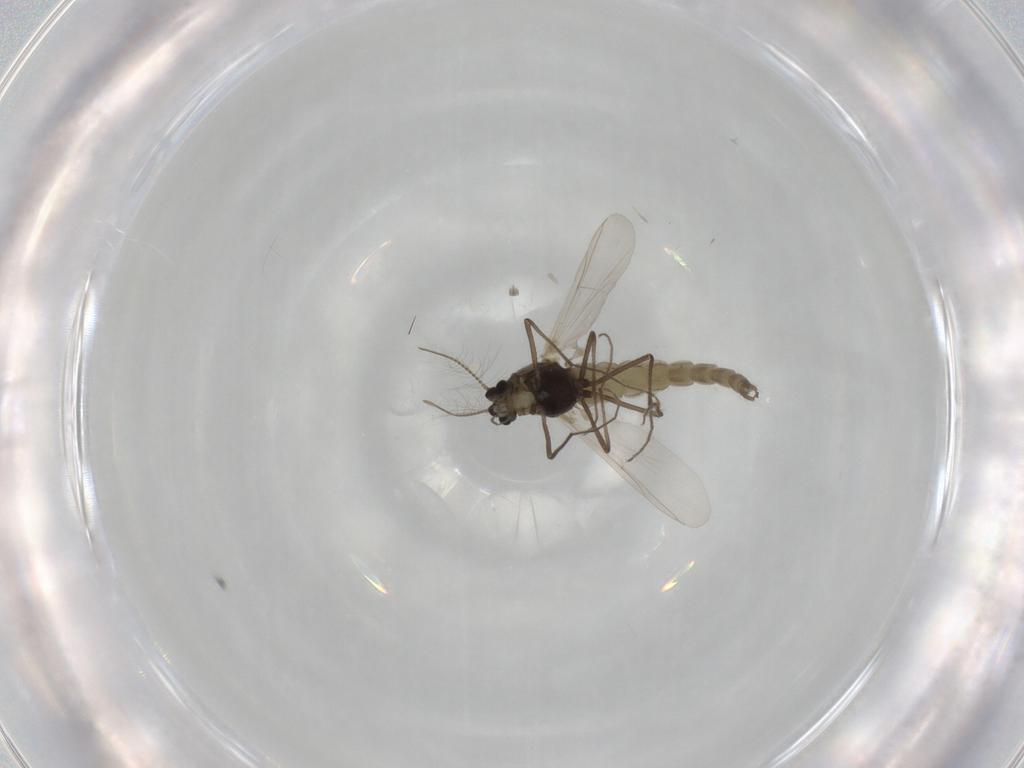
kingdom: Animalia
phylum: Arthropoda
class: Insecta
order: Diptera
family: Chironomidae
